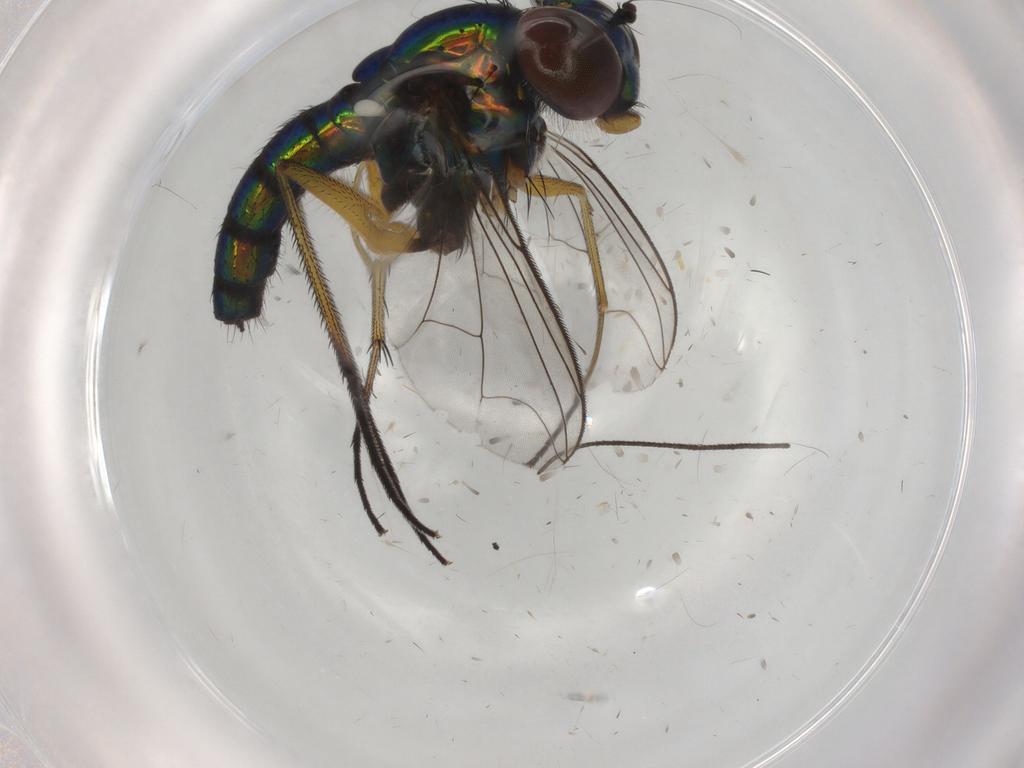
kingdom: Animalia
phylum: Arthropoda
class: Insecta
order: Diptera
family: Dolichopodidae
